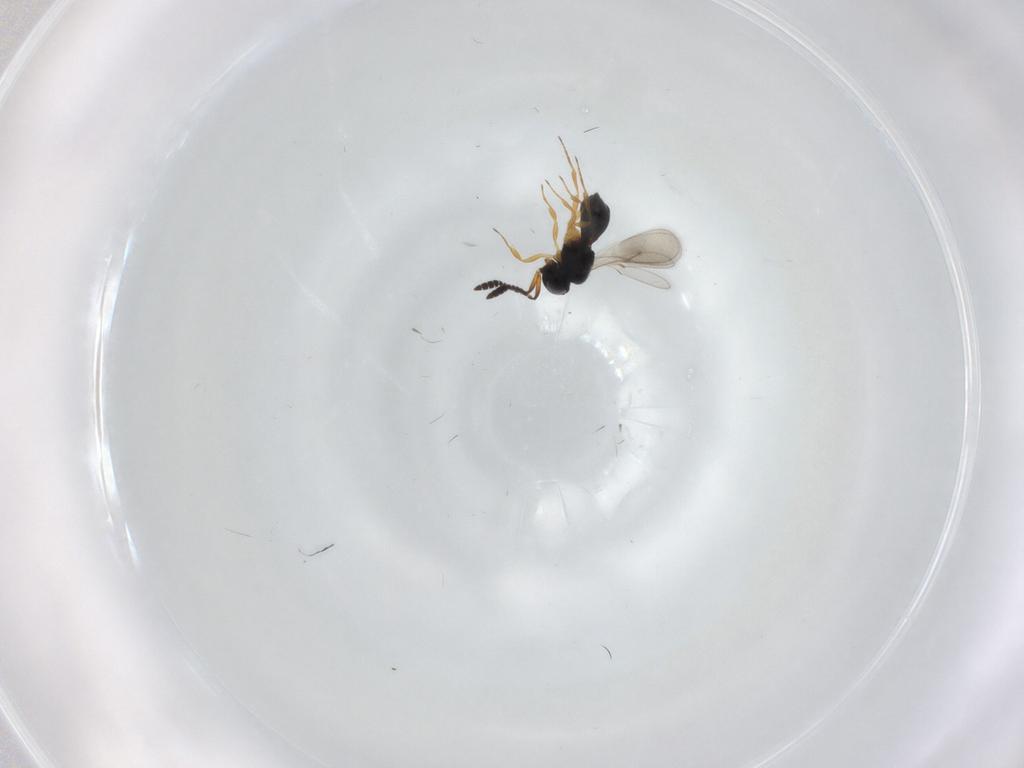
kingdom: Animalia
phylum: Arthropoda
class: Insecta
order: Hymenoptera
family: Scelionidae
